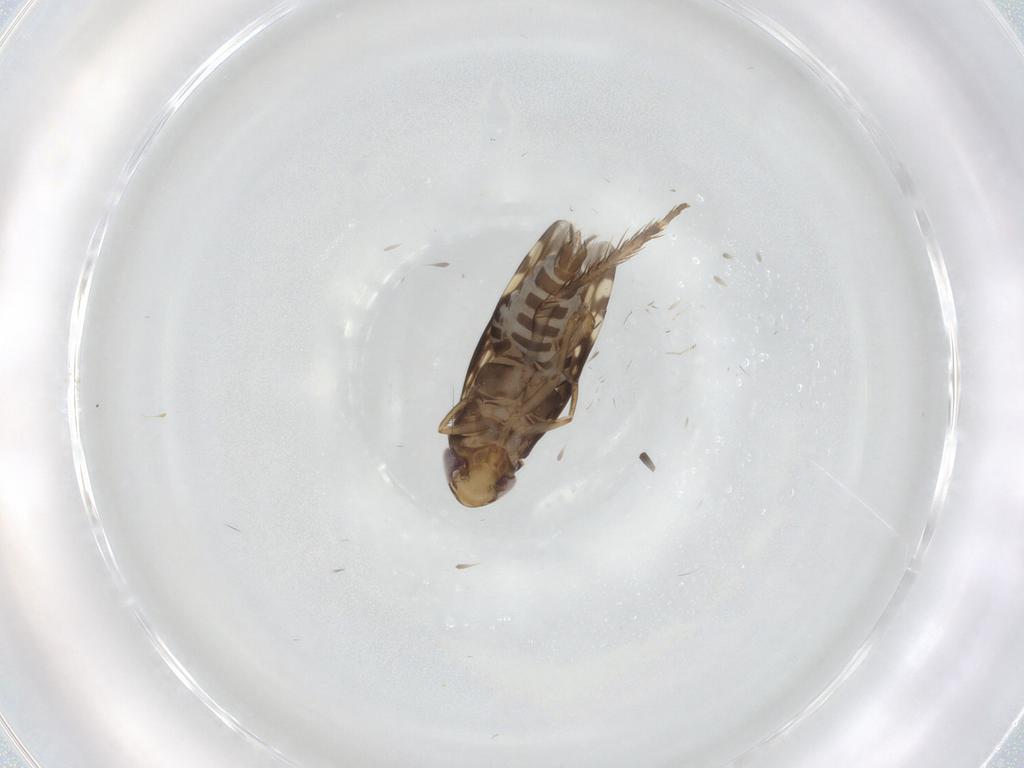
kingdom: Animalia
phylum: Arthropoda
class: Insecta
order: Hemiptera
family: Cicadellidae
